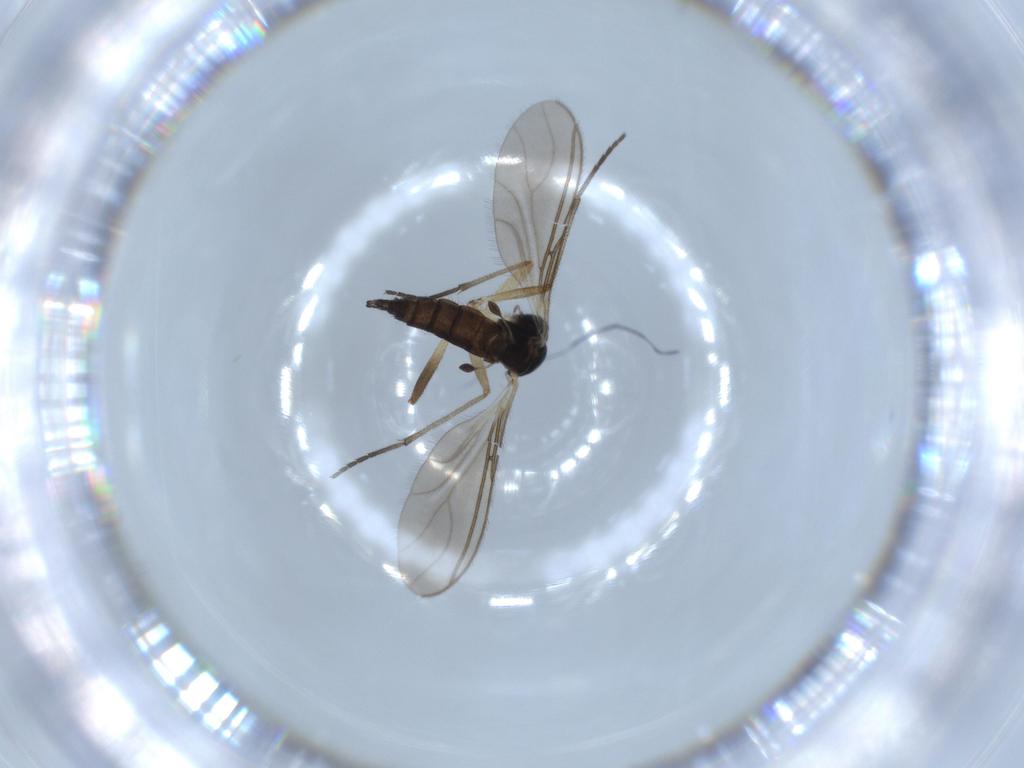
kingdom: Animalia
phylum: Arthropoda
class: Insecta
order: Diptera
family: Sciaridae
